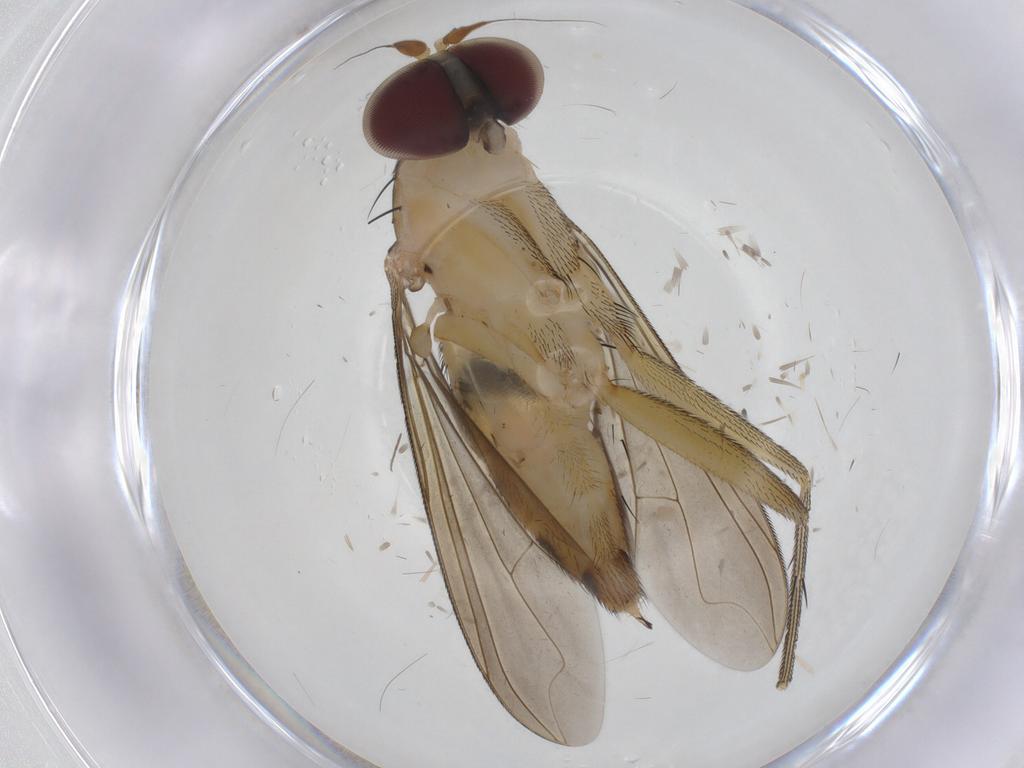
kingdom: Animalia
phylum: Arthropoda
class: Insecta
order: Diptera
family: Dolichopodidae
